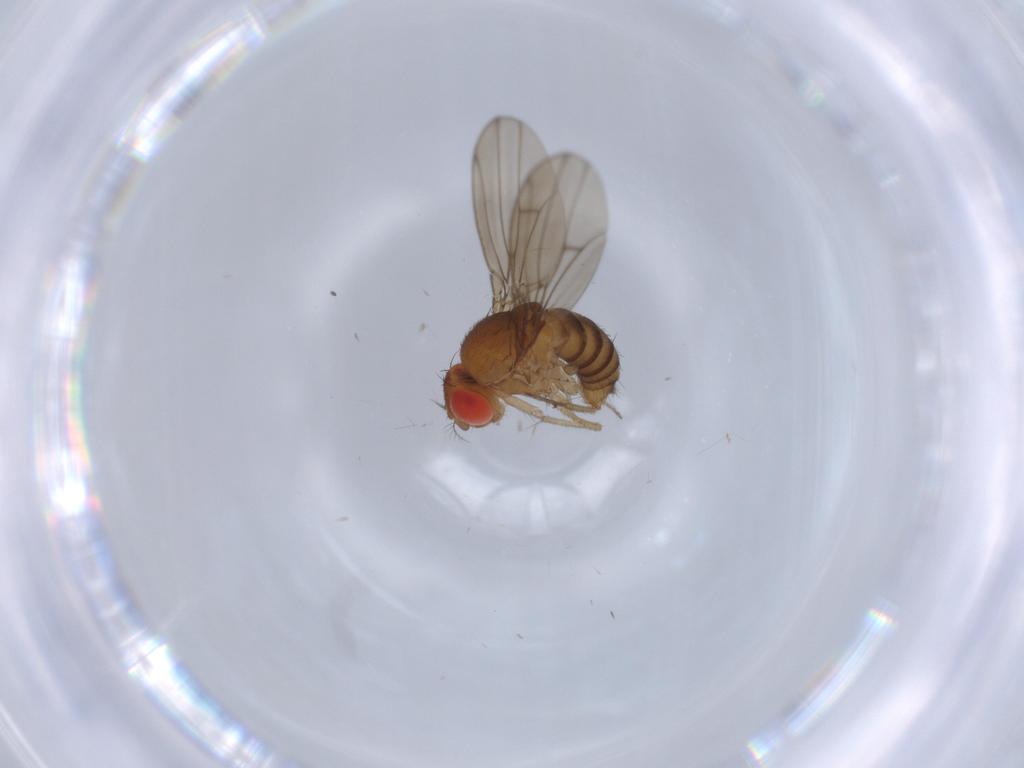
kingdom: Animalia
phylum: Arthropoda
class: Insecta
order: Diptera
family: Drosophilidae
